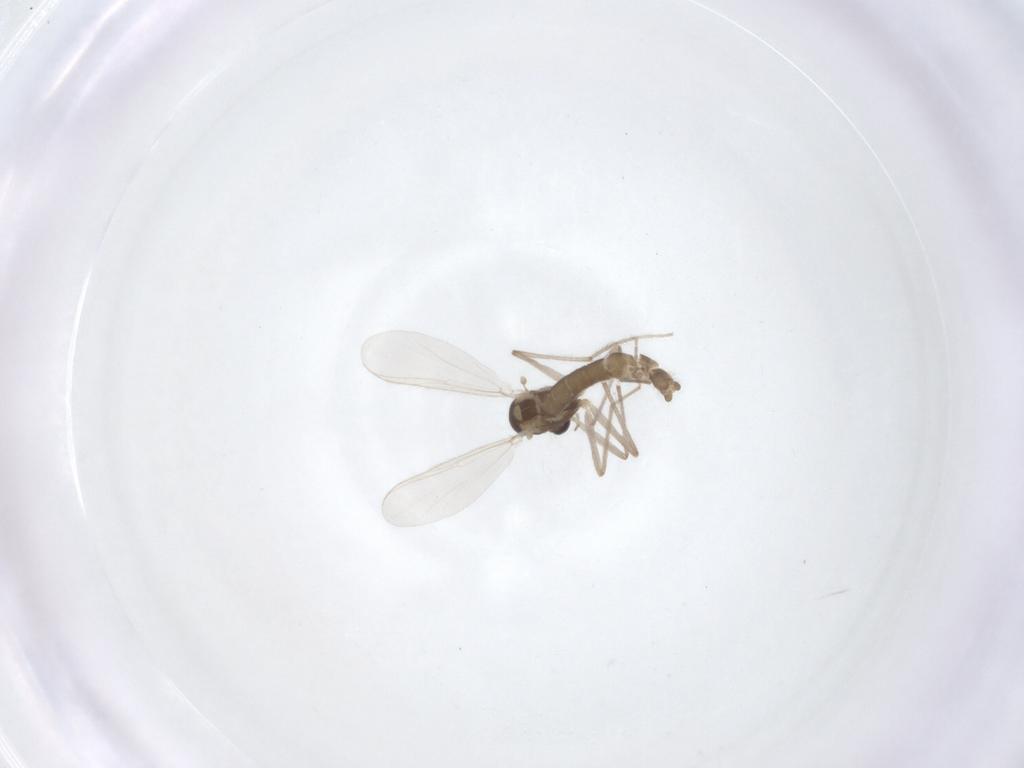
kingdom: Animalia
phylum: Arthropoda
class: Insecta
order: Diptera
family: Chironomidae
